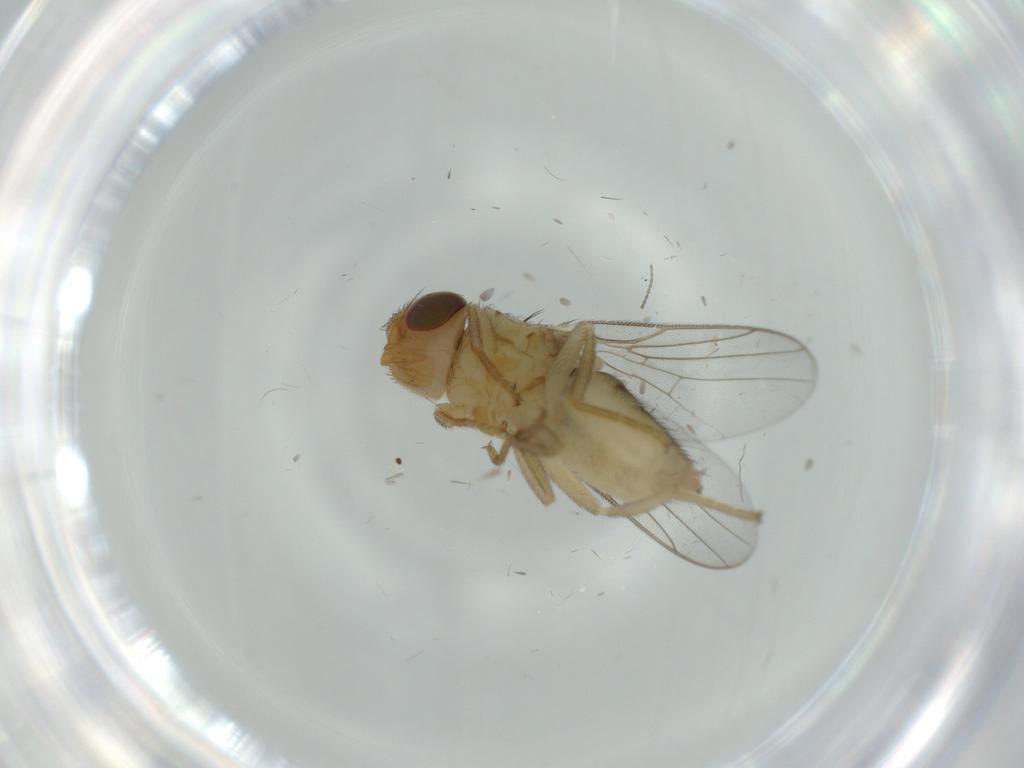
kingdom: Animalia
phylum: Arthropoda
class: Insecta
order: Diptera
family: Chloropidae
